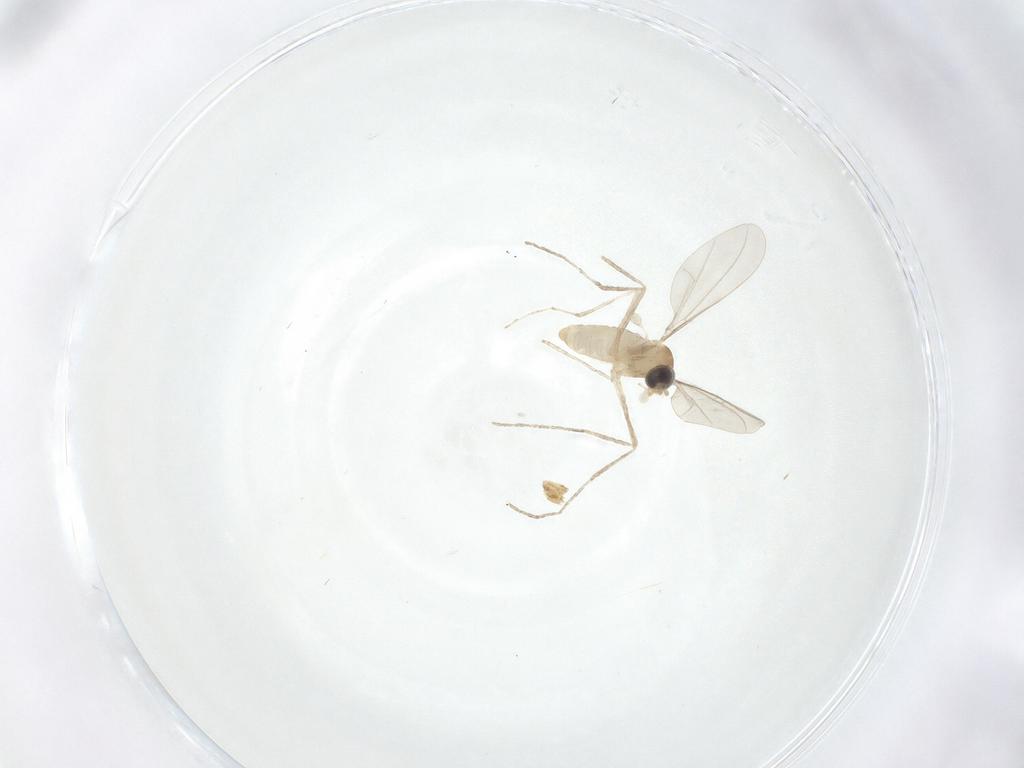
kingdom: Animalia
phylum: Arthropoda
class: Insecta
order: Diptera
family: Cecidomyiidae
